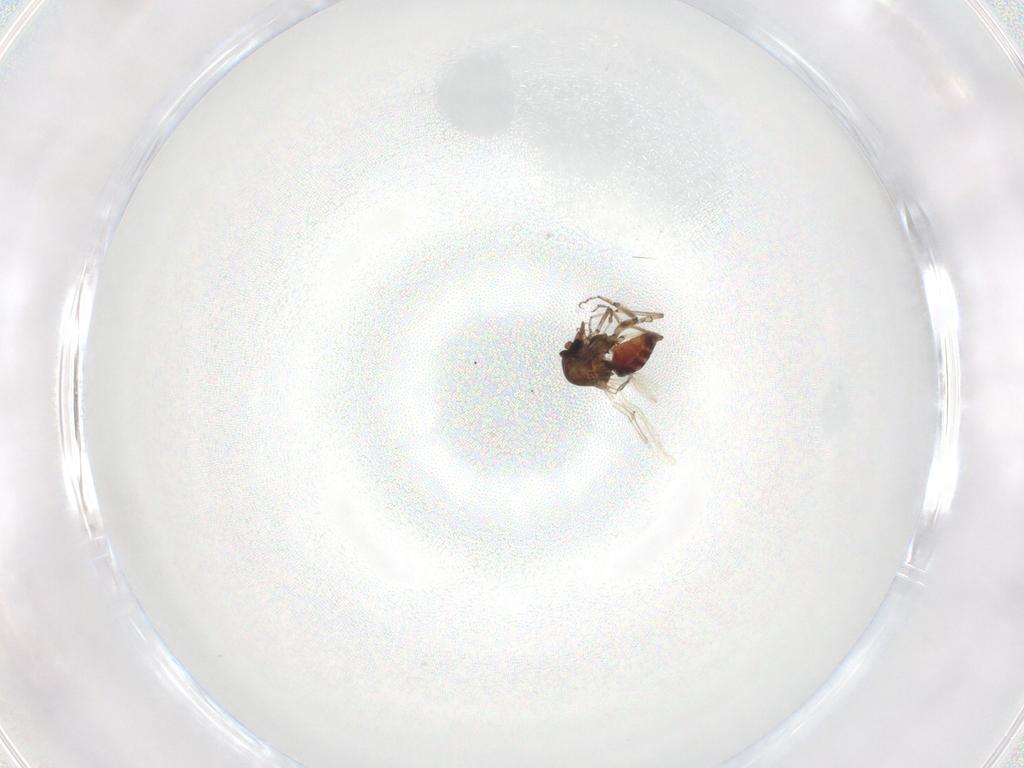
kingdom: Animalia
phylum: Arthropoda
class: Insecta
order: Diptera
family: Ceratopogonidae
